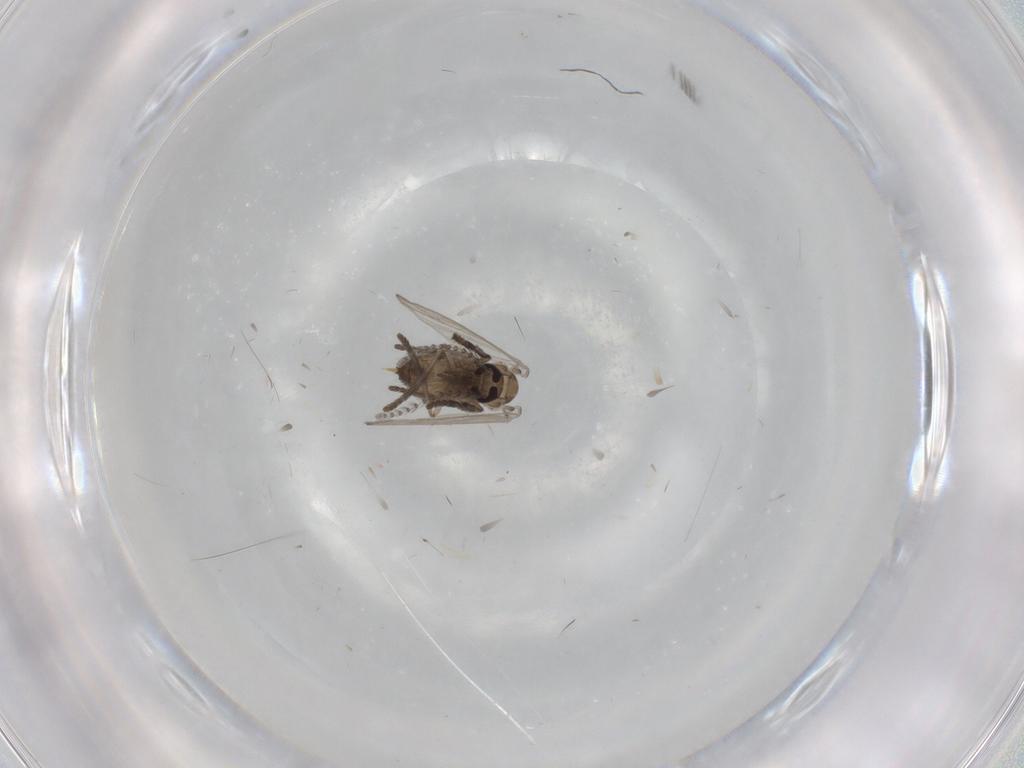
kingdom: Animalia
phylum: Arthropoda
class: Insecta
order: Diptera
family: Psychodidae
